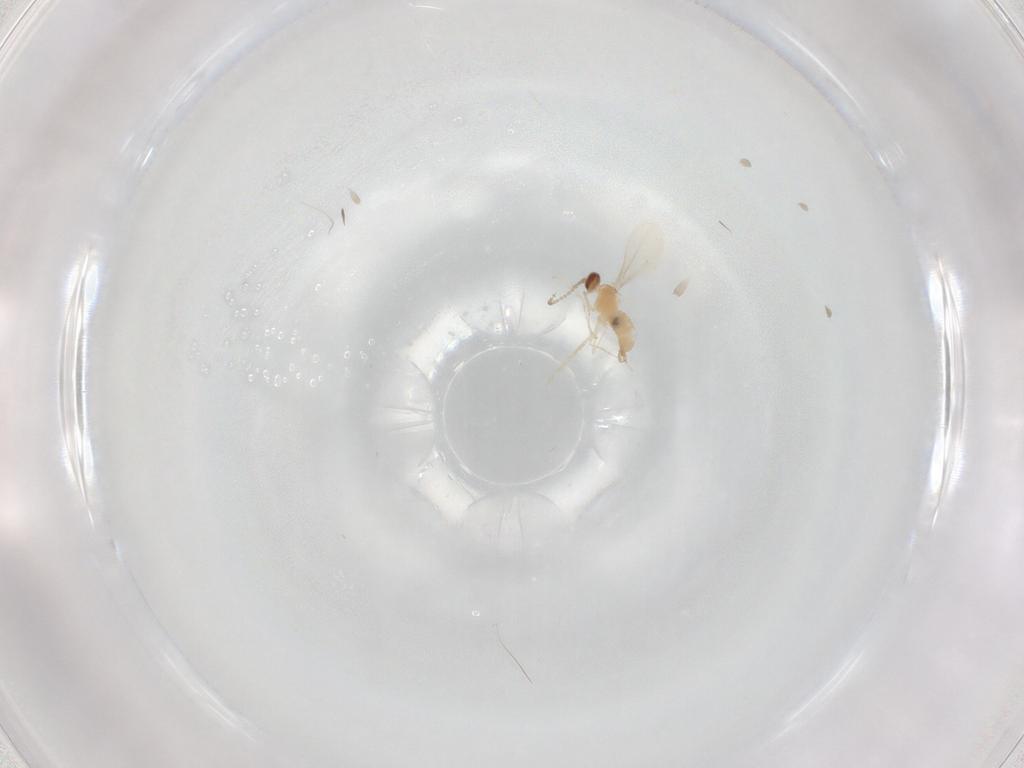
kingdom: Animalia
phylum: Arthropoda
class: Insecta
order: Diptera
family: Cecidomyiidae
